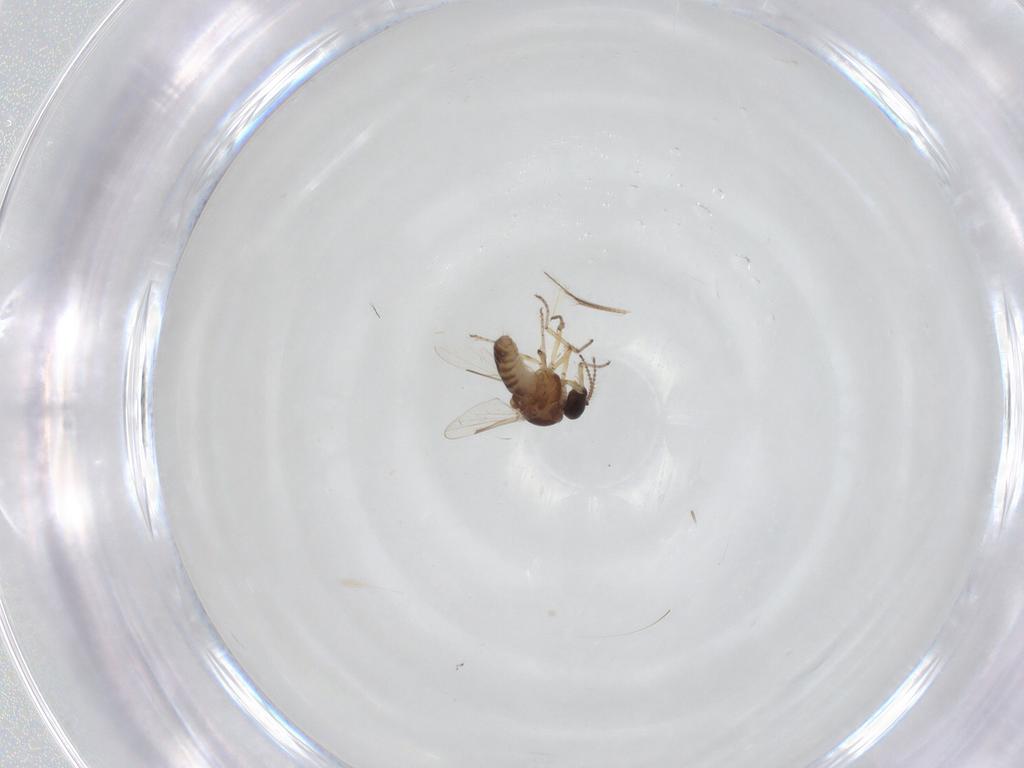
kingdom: Animalia
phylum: Arthropoda
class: Insecta
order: Diptera
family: Ceratopogonidae
